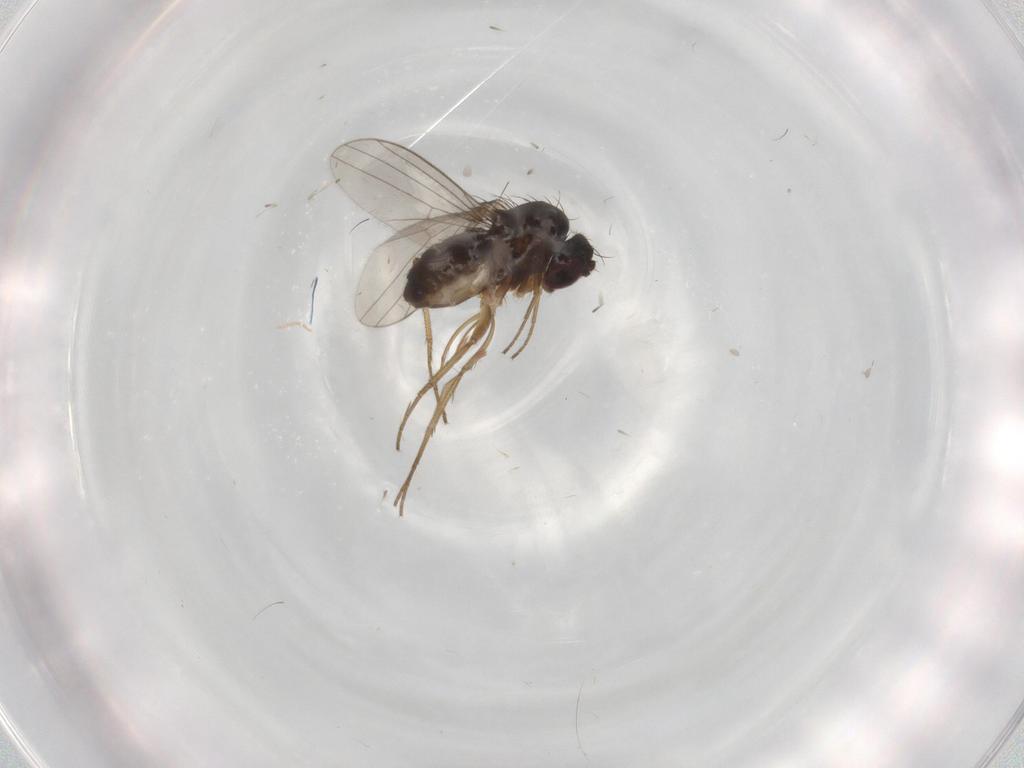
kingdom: Animalia
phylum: Arthropoda
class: Insecta
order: Diptera
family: Dolichopodidae
